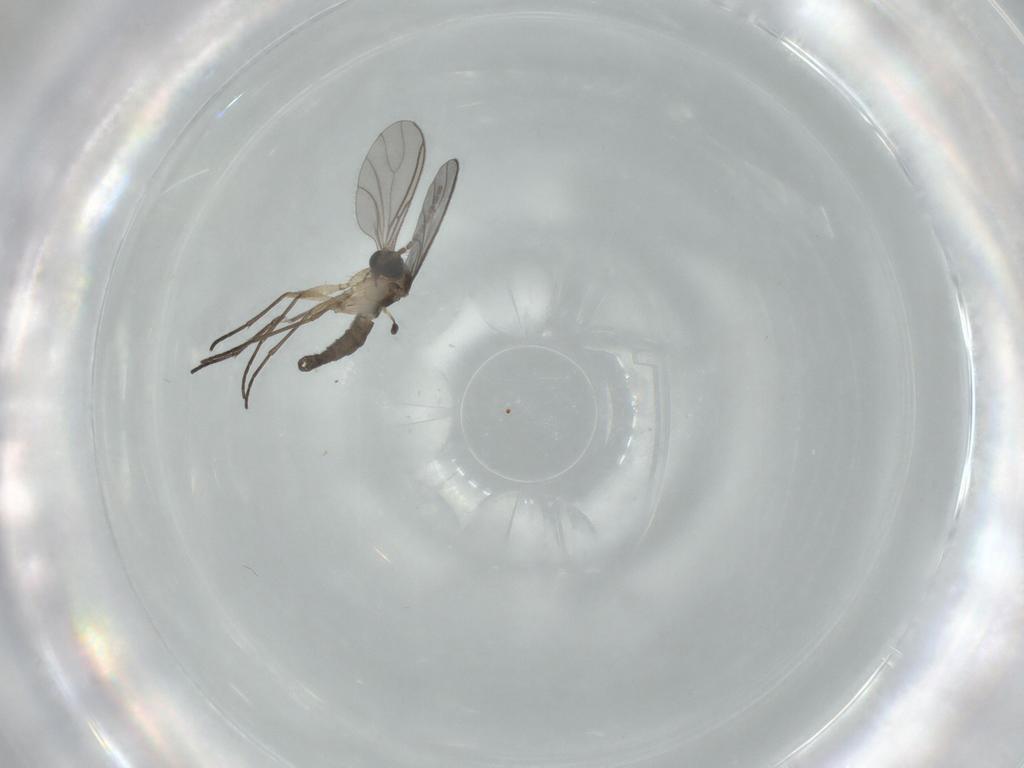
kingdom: Animalia
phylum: Arthropoda
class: Insecta
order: Diptera
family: Sciaridae
